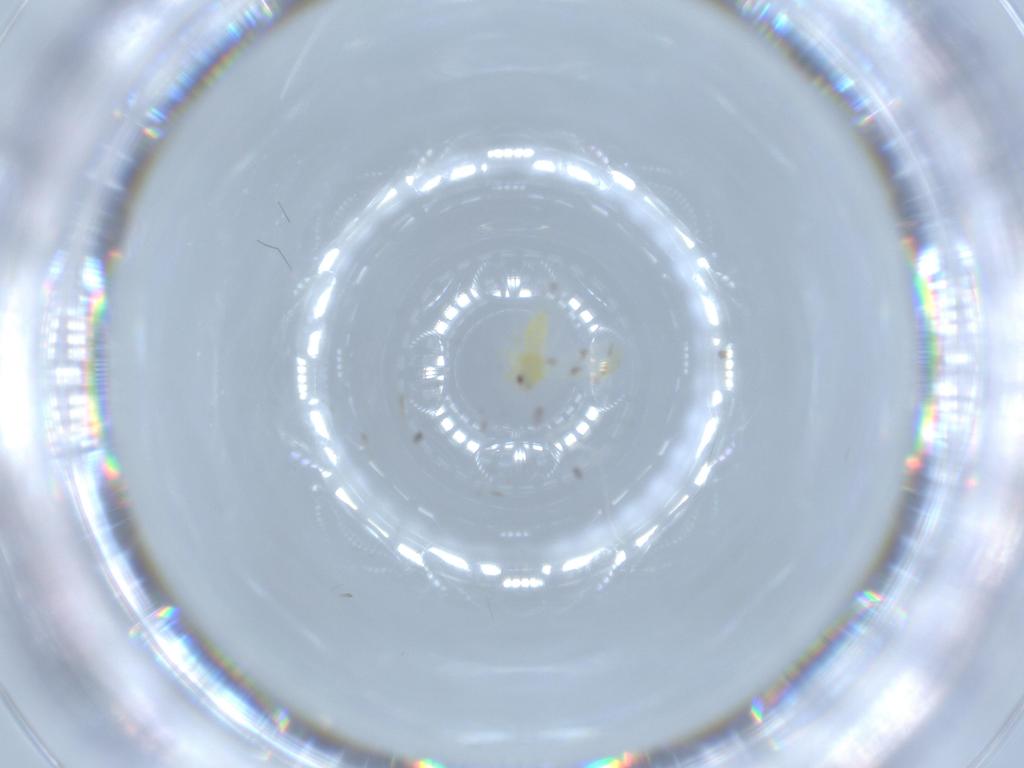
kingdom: Animalia
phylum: Arthropoda
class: Insecta
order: Hemiptera
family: Aleyrodidae
